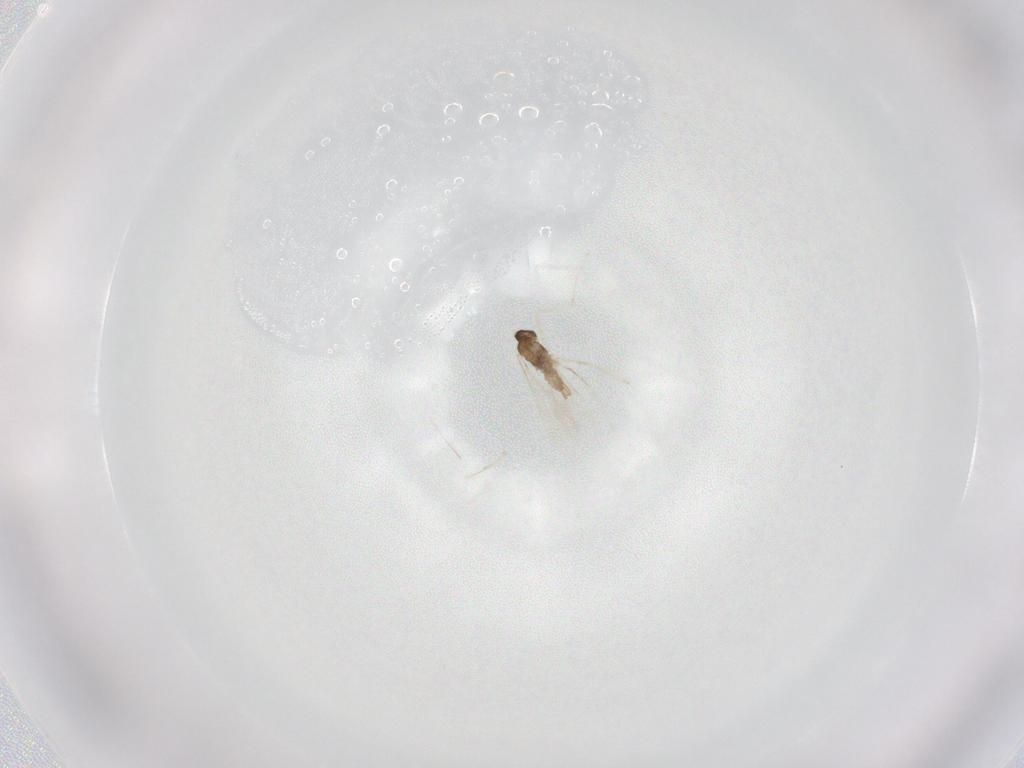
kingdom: Animalia
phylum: Arthropoda
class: Insecta
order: Diptera
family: Cecidomyiidae
